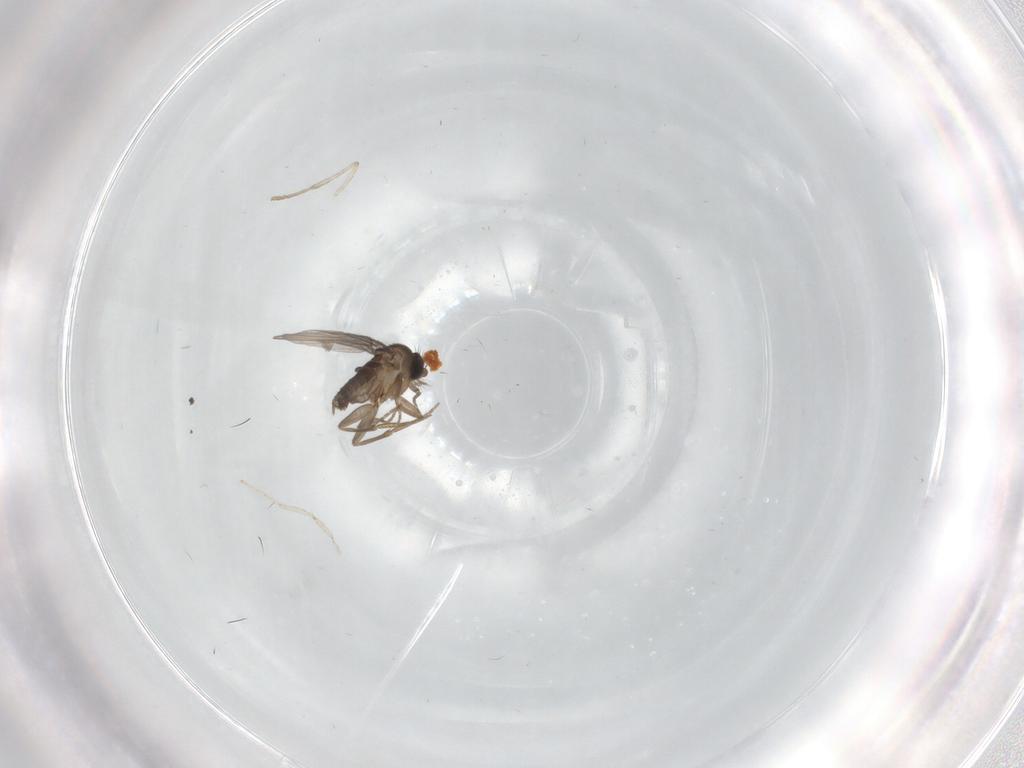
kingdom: Animalia
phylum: Arthropoda
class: Insecta
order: Diptera
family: Cecidomyiidae
